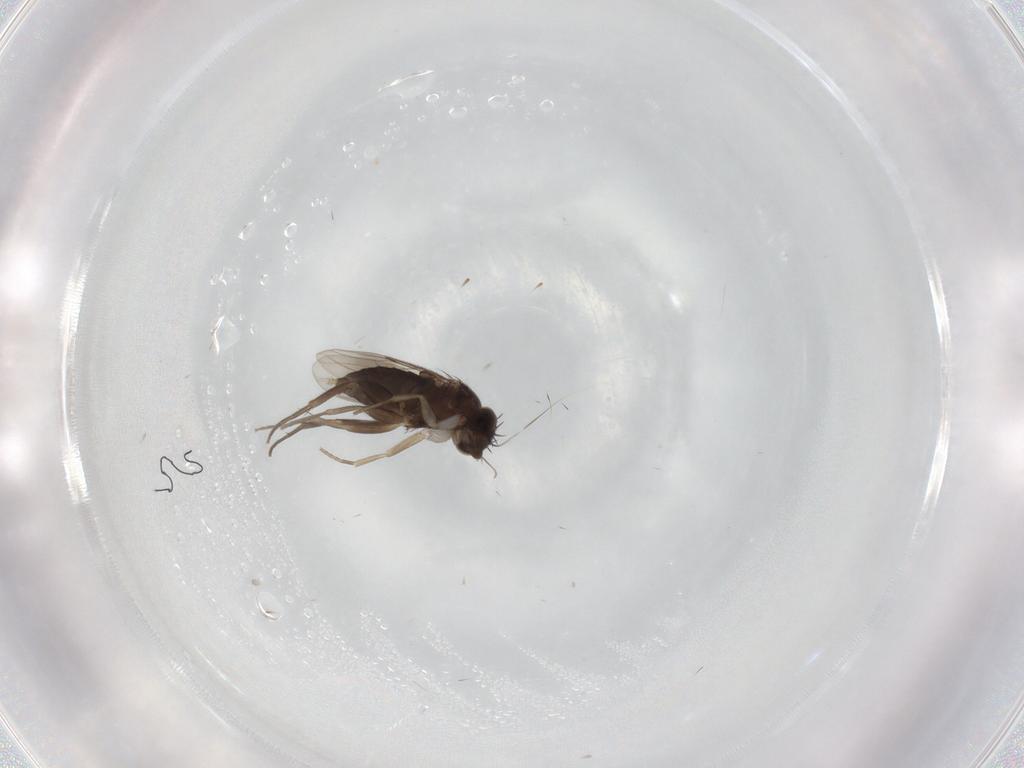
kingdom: Animalia
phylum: Arthropoda
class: Insecta
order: Diptera
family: Phoridae
